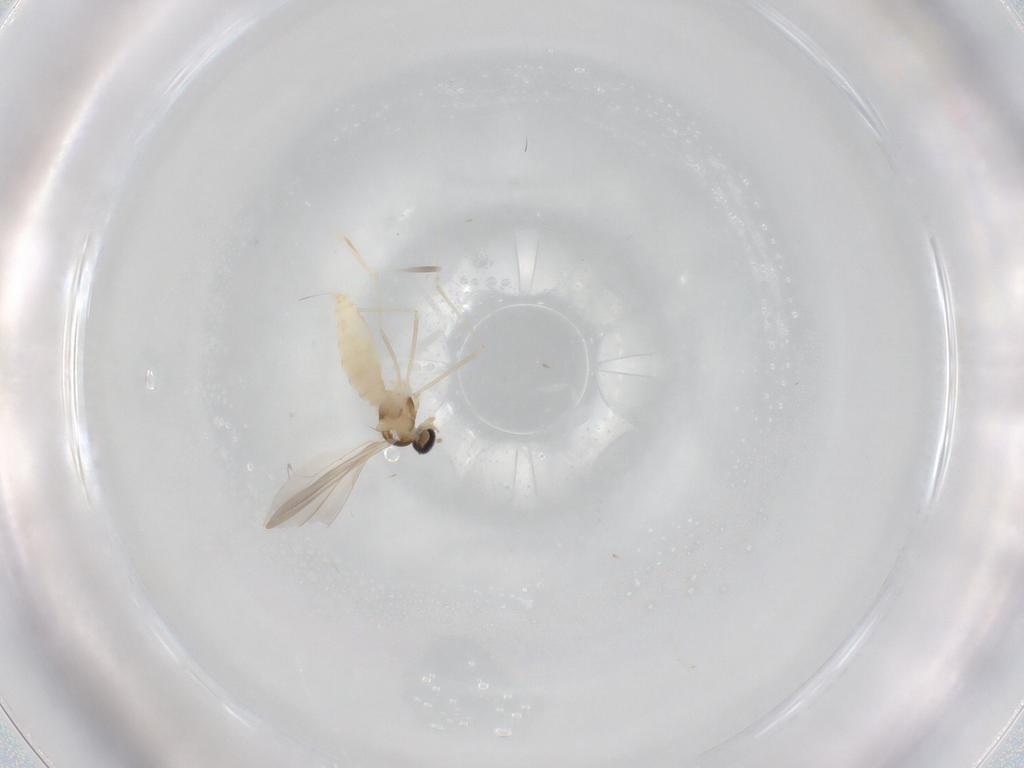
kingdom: Animalia
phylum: Arthropoda
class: Insecta
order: Diptera
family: Cecidomyiidae
